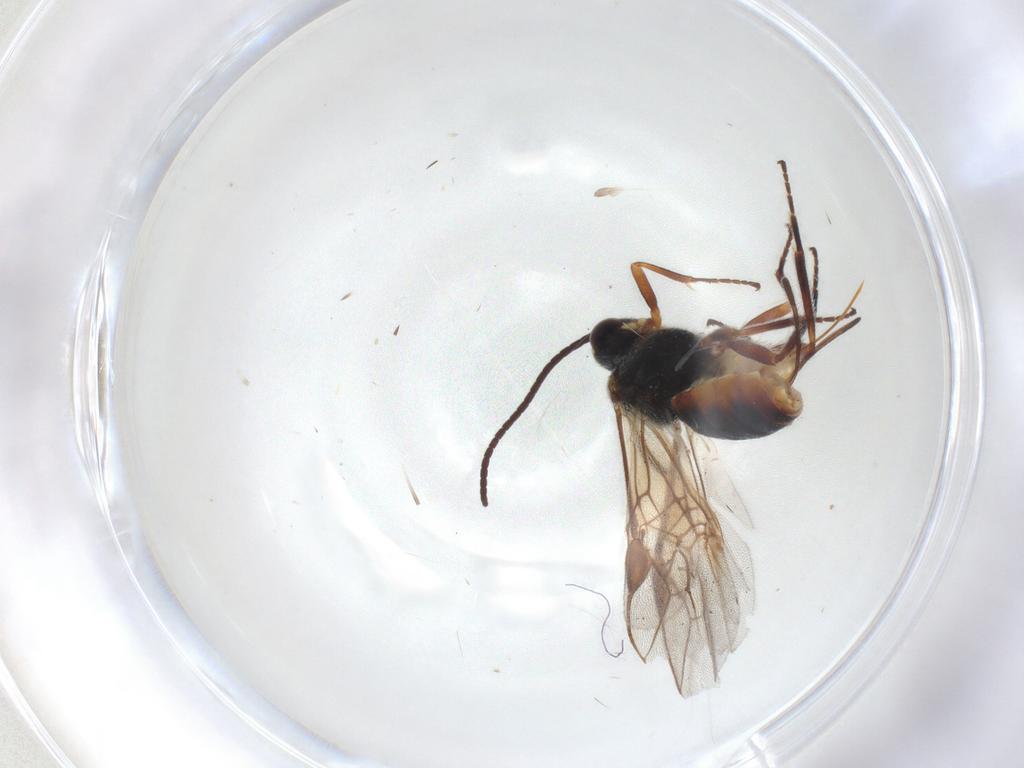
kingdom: Animalia
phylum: Arthropoda
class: Insecta
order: Hymenoptera
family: Braconidae
